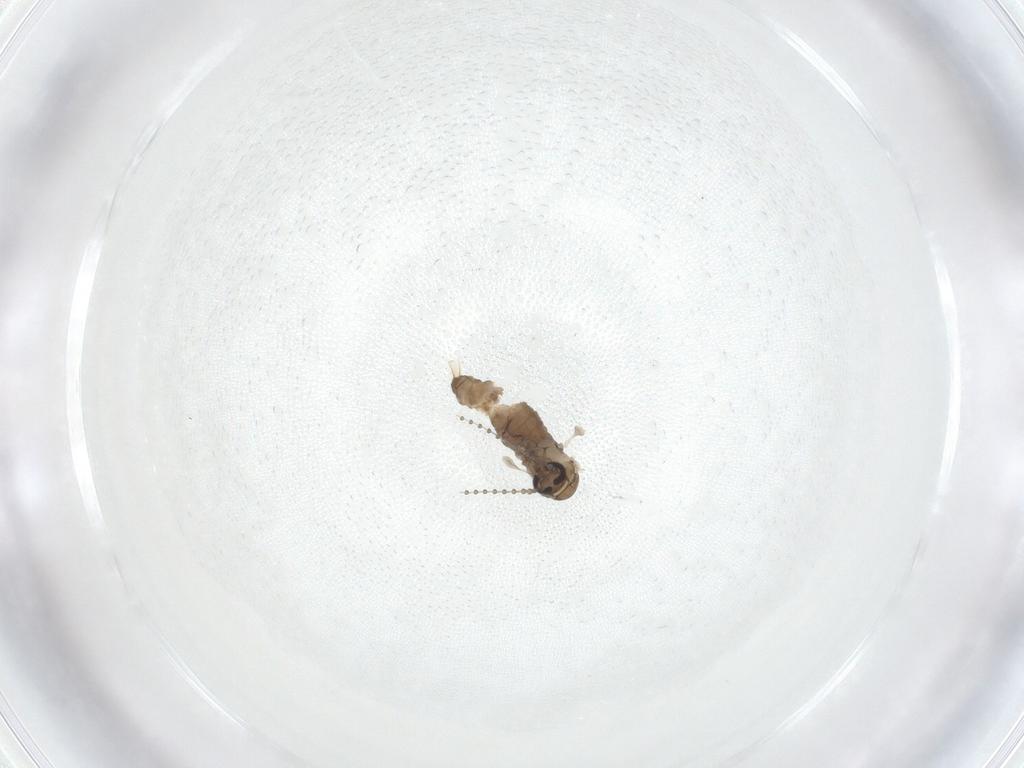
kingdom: Animalia
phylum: Arthropoda
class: Insecta
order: Diptera
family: Psychodidae
